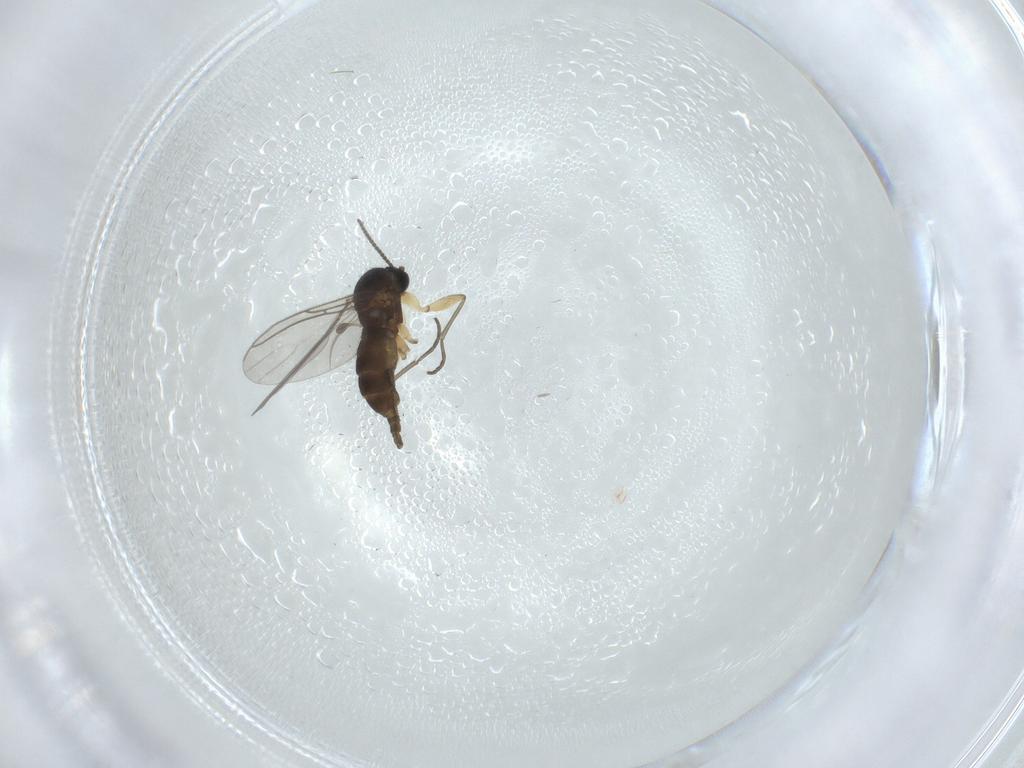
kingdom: Animalia
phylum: Arthropoda
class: Insecta
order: Diptera
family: Sciaridae
